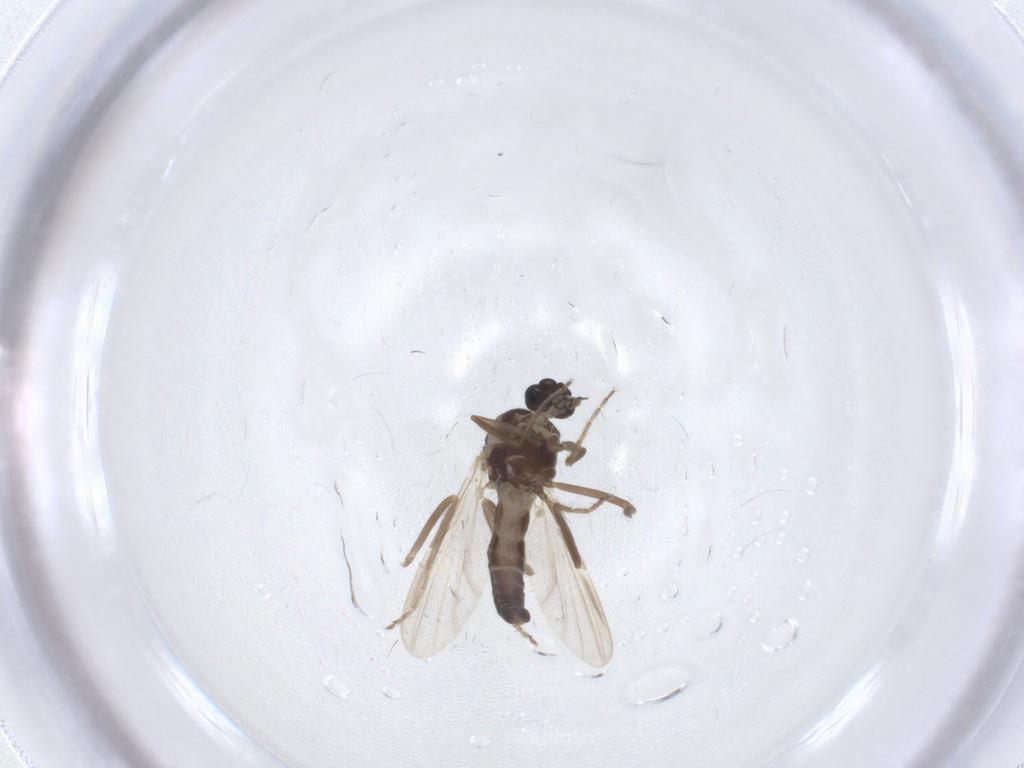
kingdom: Animalia
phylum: Arthropoda
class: Insecta
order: Diptera
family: Ceratopogonidae
